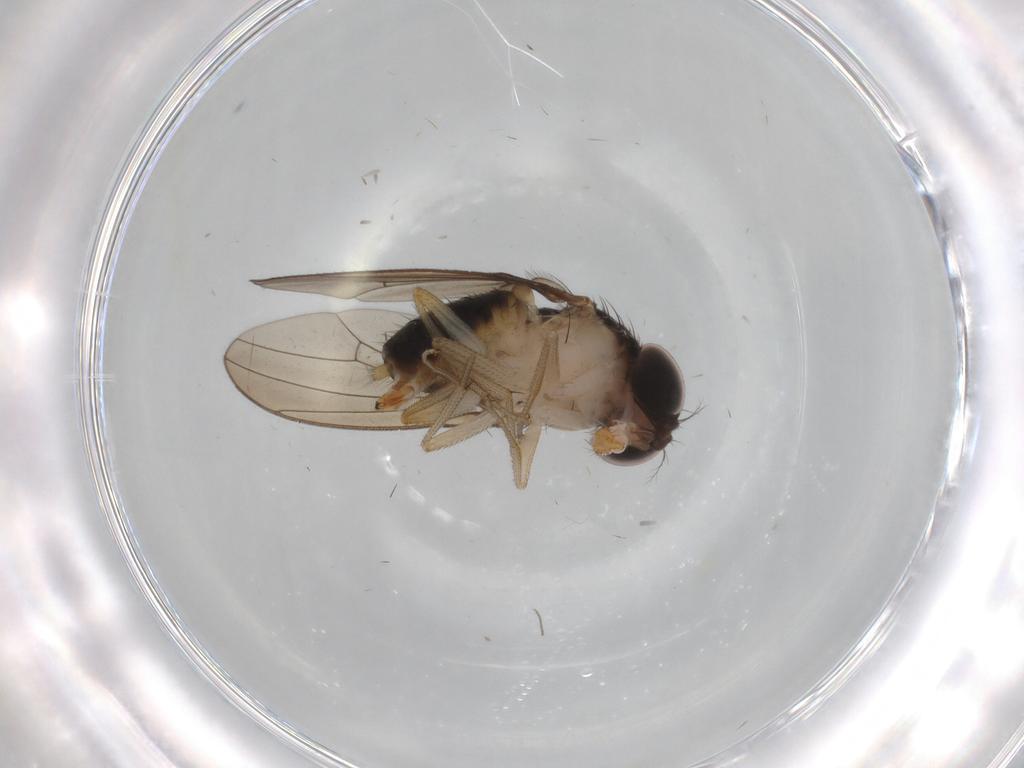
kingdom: Animalia
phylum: Arthropoda
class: Insecta
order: Diptera
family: Drosophilidae
